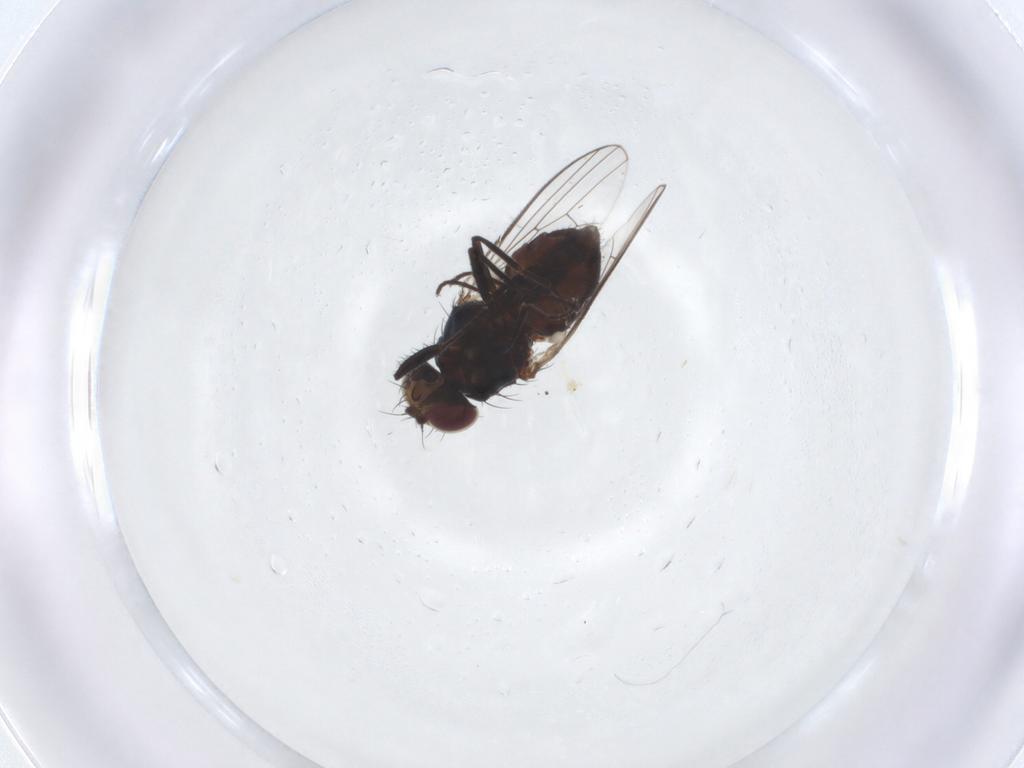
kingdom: Animalia
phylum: Arthropoda
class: Insecta
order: Diptera
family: Carnidae
